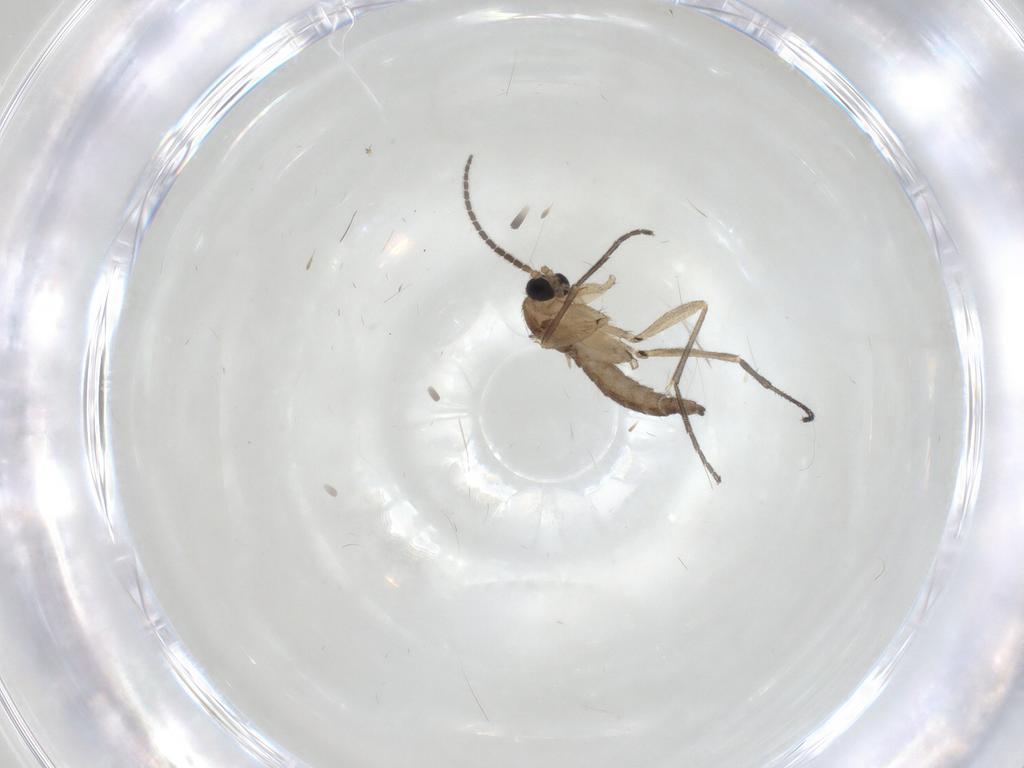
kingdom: Animalia
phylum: Arthropoda
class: Insecta
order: Diptera
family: Sciaridae
